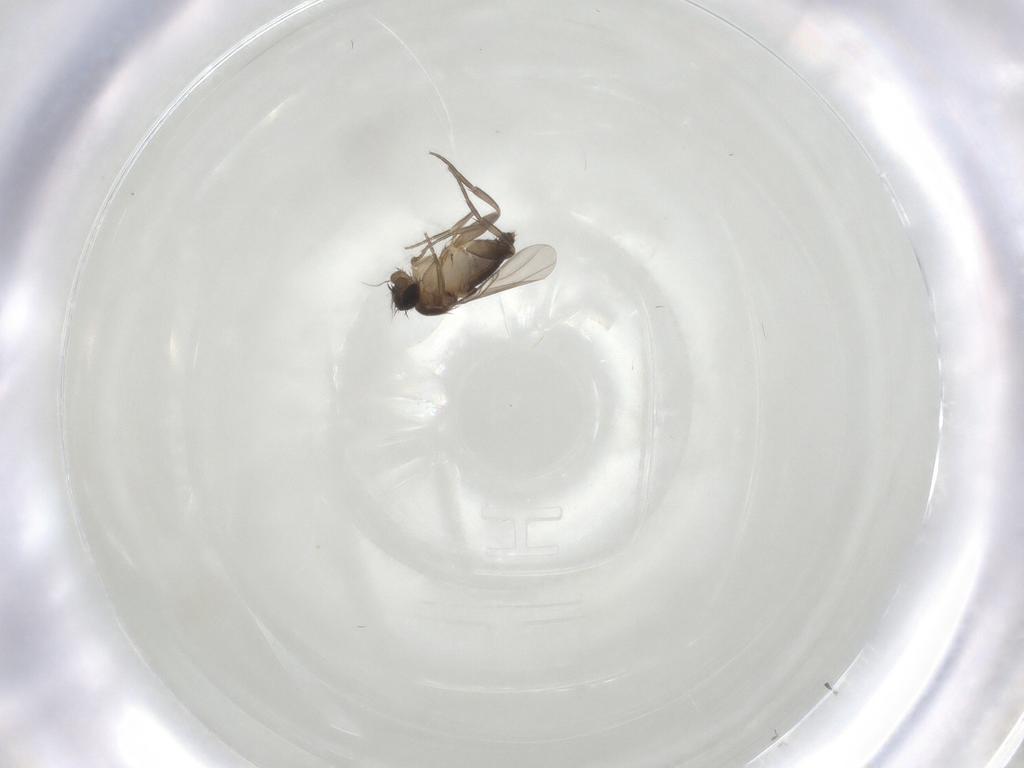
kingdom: Animalia
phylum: Arthropoda
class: Insecta
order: Diptera
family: Phoridae
